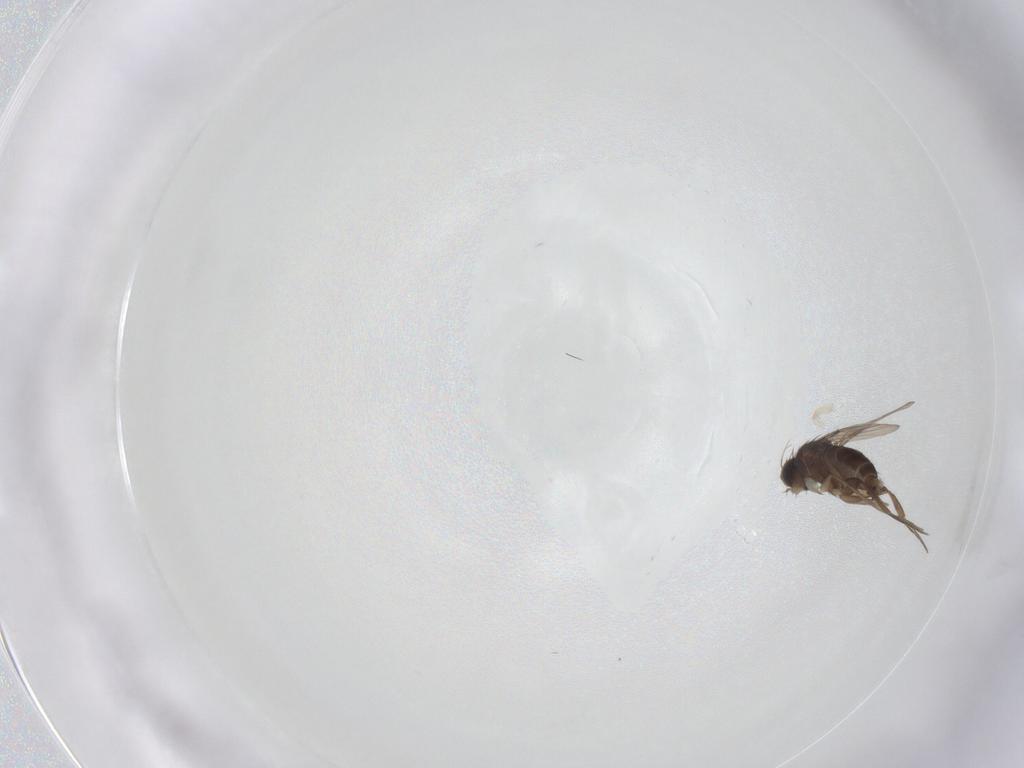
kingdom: Animalia
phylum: Arthropoda
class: Insecta
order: Diptera
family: Phoridae
